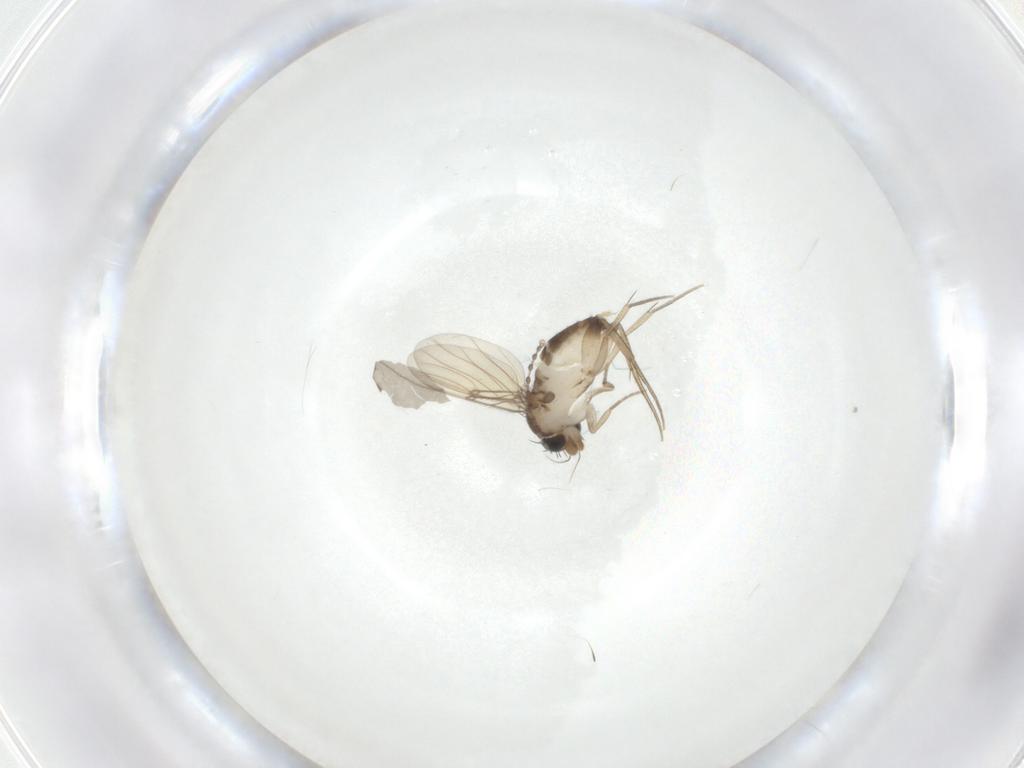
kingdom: Animalia
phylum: Arthropoda
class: Insecta
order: Diptera
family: Phoridae
